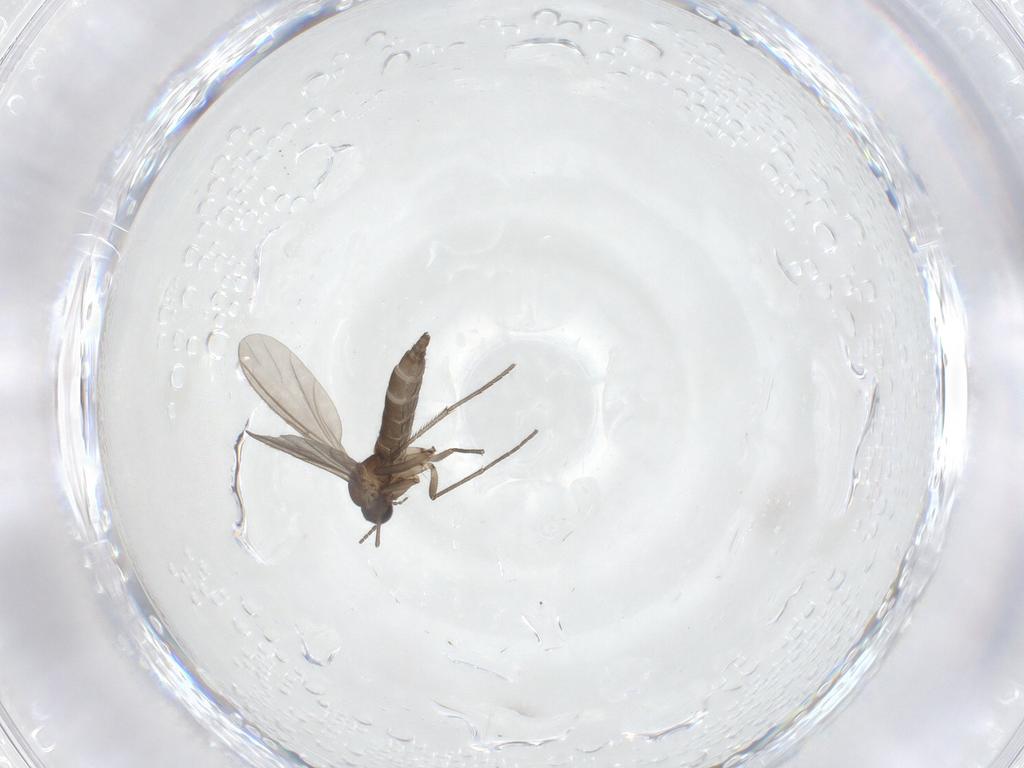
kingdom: Animalia
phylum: Arthropoda
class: Insecta
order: Diptera
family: Sciaridae
